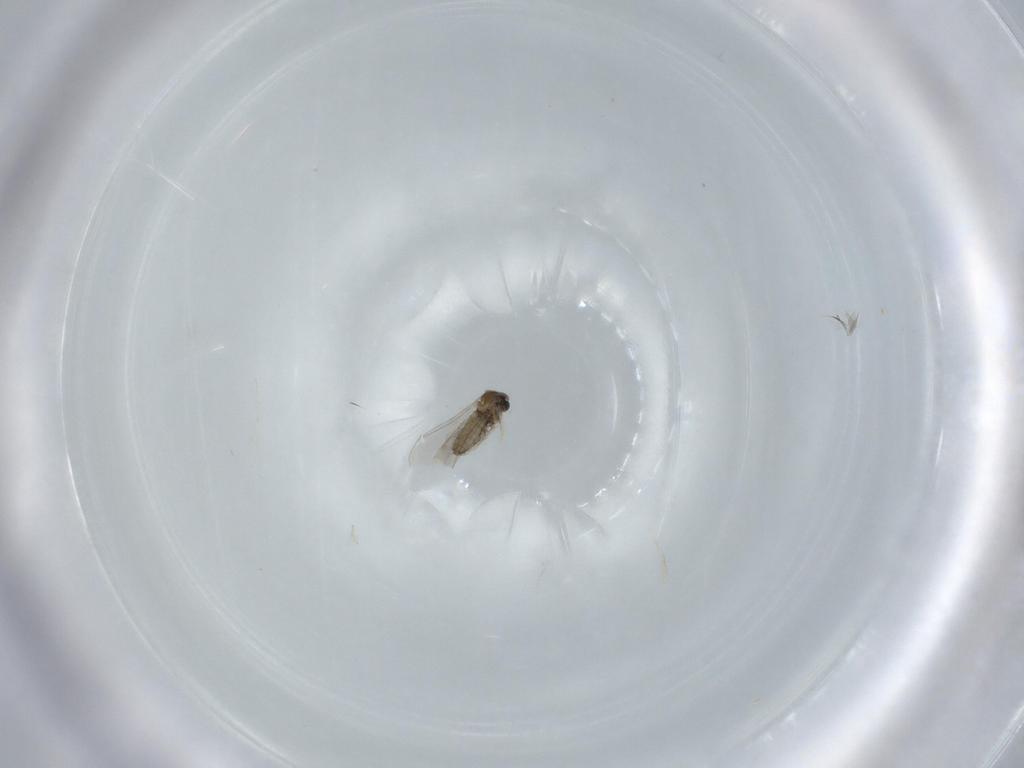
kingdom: Animalia
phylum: Arthropoda
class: Insecta
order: Diptera
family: Cecidomyiidae
